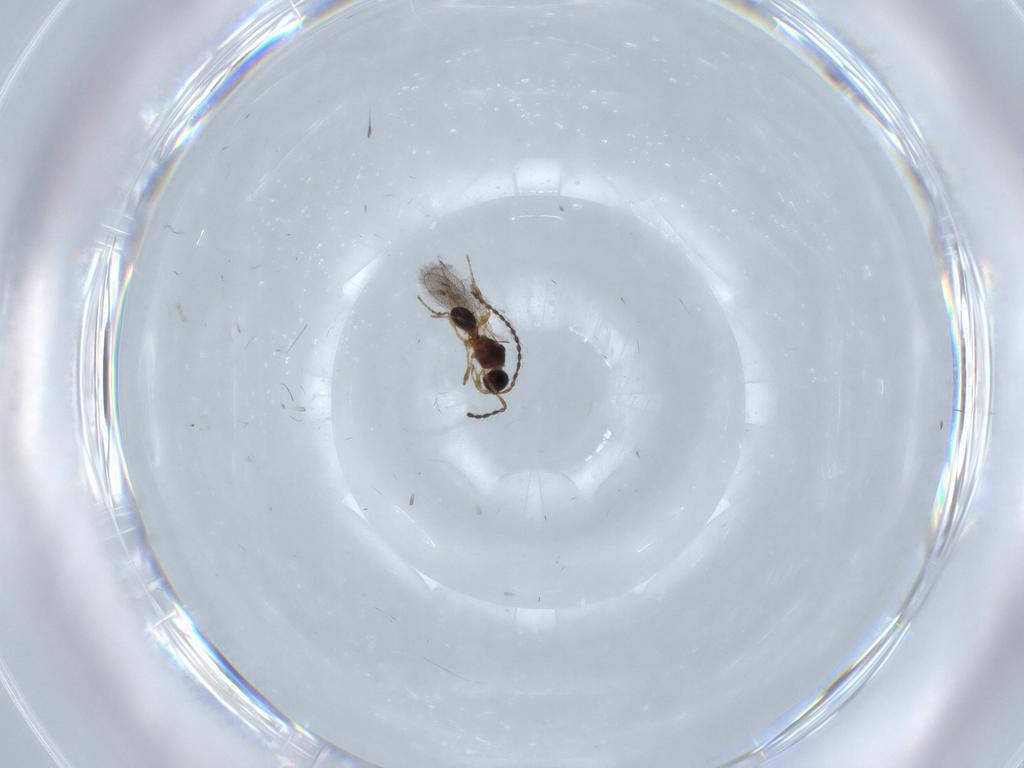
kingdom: Animalia
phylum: Arthropoda
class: Insecta
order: Hymenoptera
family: Diapriidae
